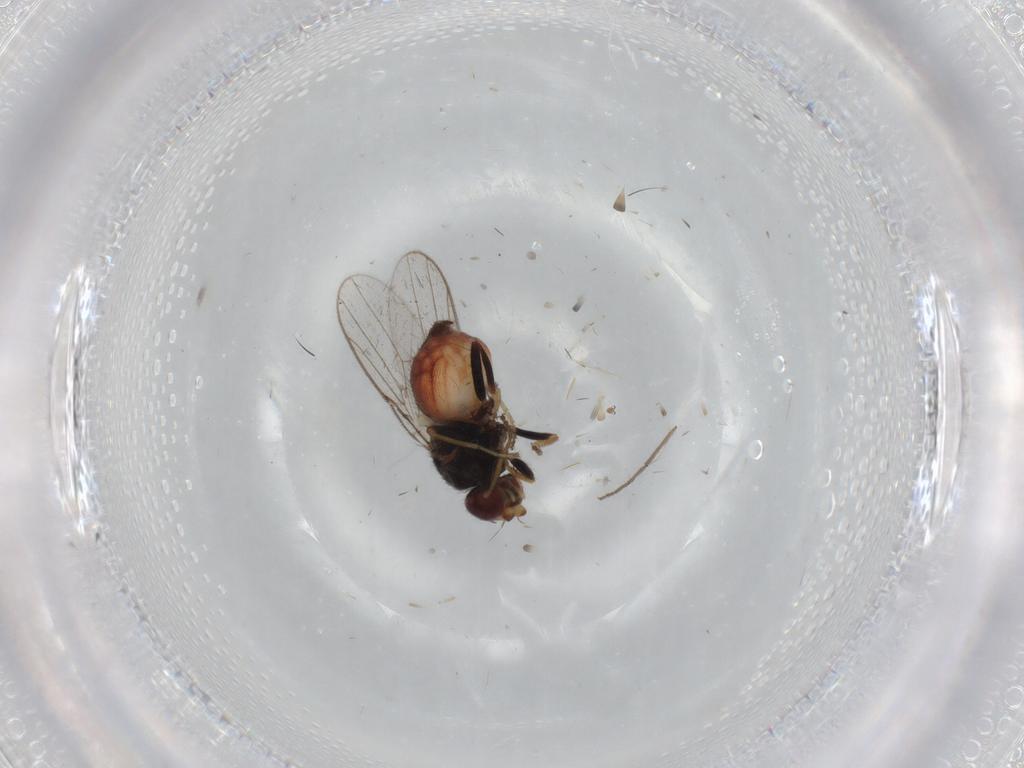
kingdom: Animalia
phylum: Arthropoda
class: Insecta
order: Diptera
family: Chloropidae
